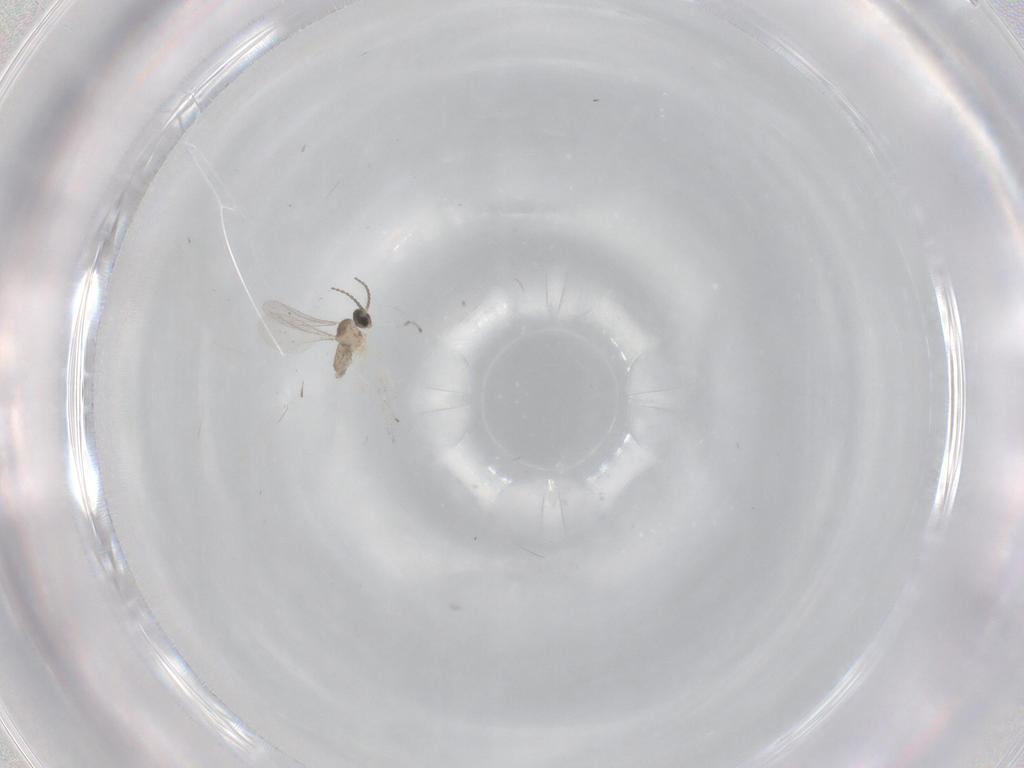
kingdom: Animalia
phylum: Arthropoda
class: Insecta
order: Diptera
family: Cecidomyiidae
